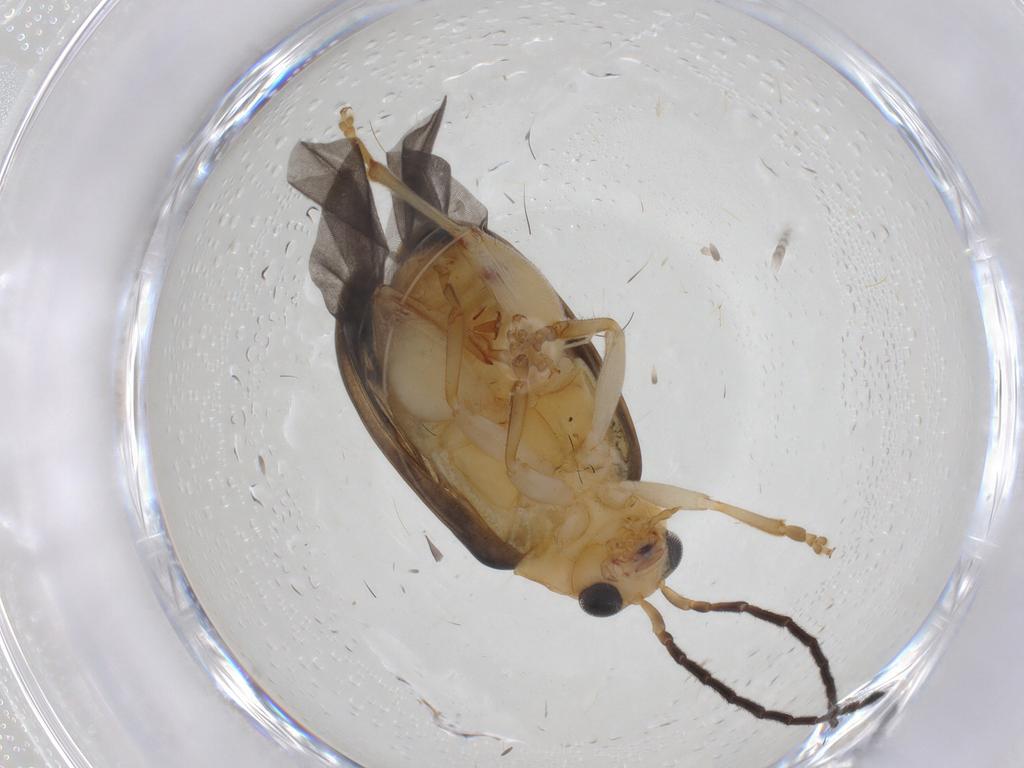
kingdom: Animalia
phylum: Arthropoda
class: Insecta
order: Coleoptera
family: Chrysomelidae
